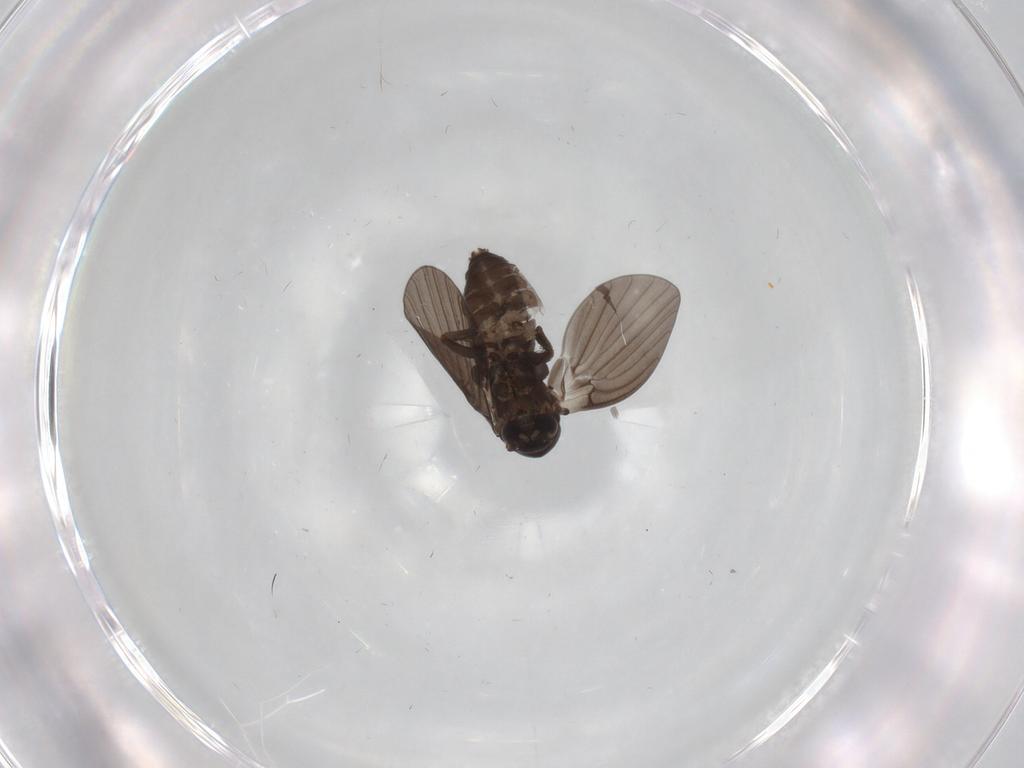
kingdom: Animalia
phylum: Arthropoda
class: Insecta
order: Diptera
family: Psychodidae
